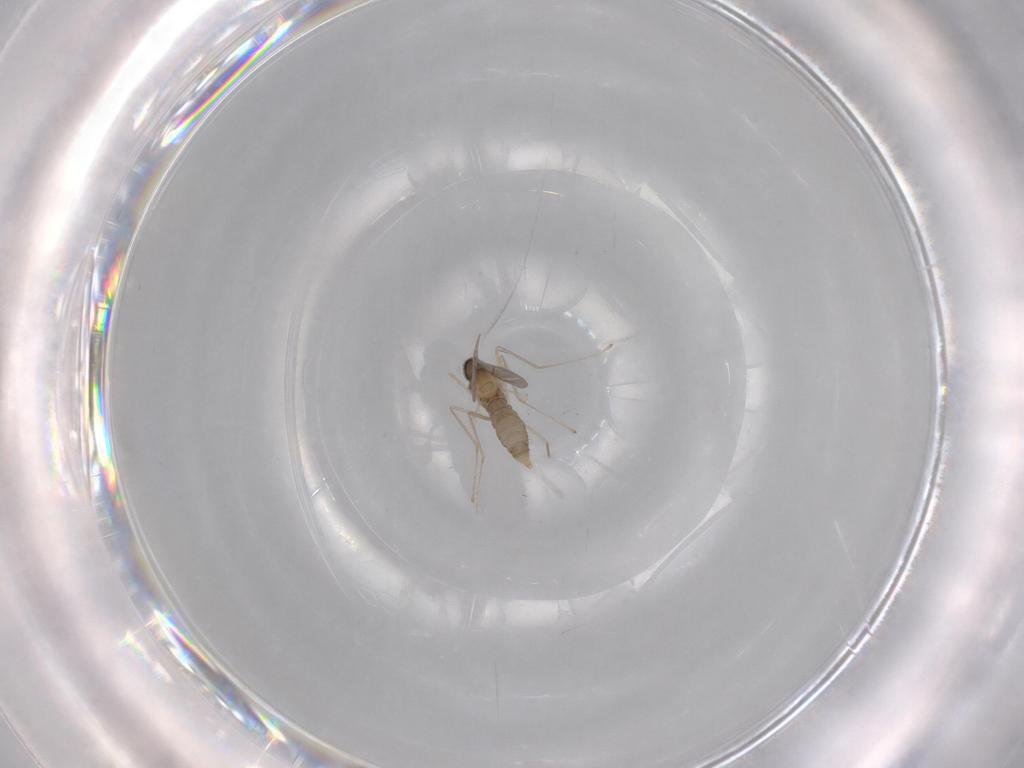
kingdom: Animalia
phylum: Arthropoda
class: Insecta
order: Diptera
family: Cecidomyiidae
